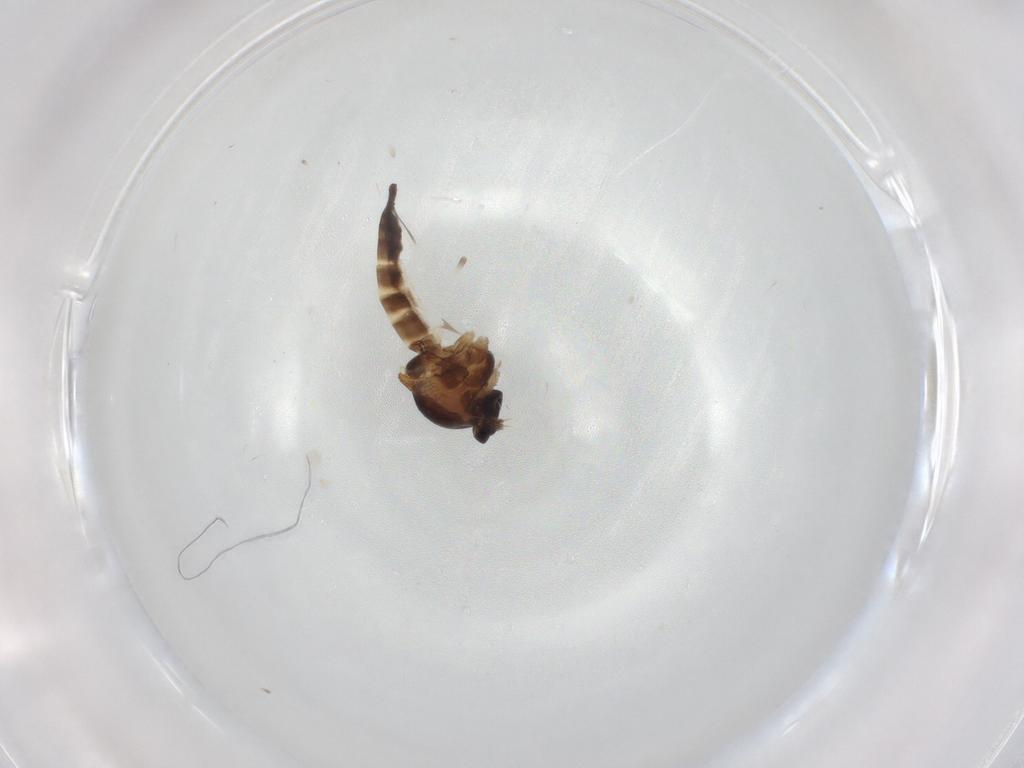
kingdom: Animalia
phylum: Arthropoda
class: Insecta
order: Diptera
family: Ceratopogonidae
